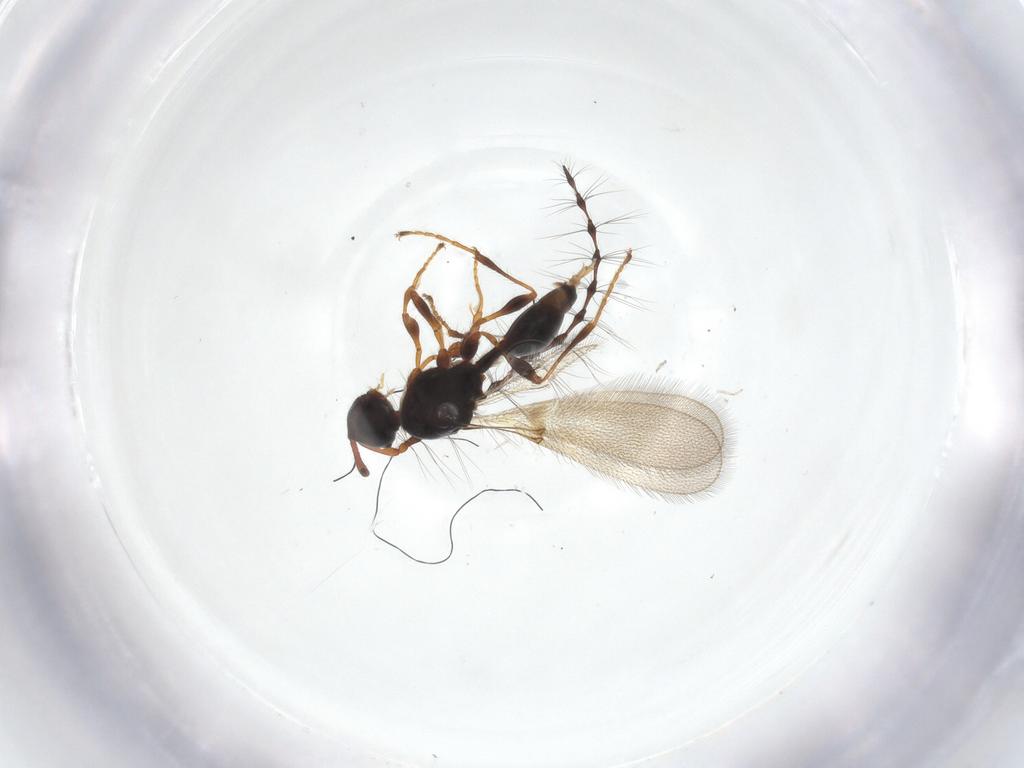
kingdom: Animalia
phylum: Arthropoda
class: Insecta
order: Hymenoptera
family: Diapriidae
